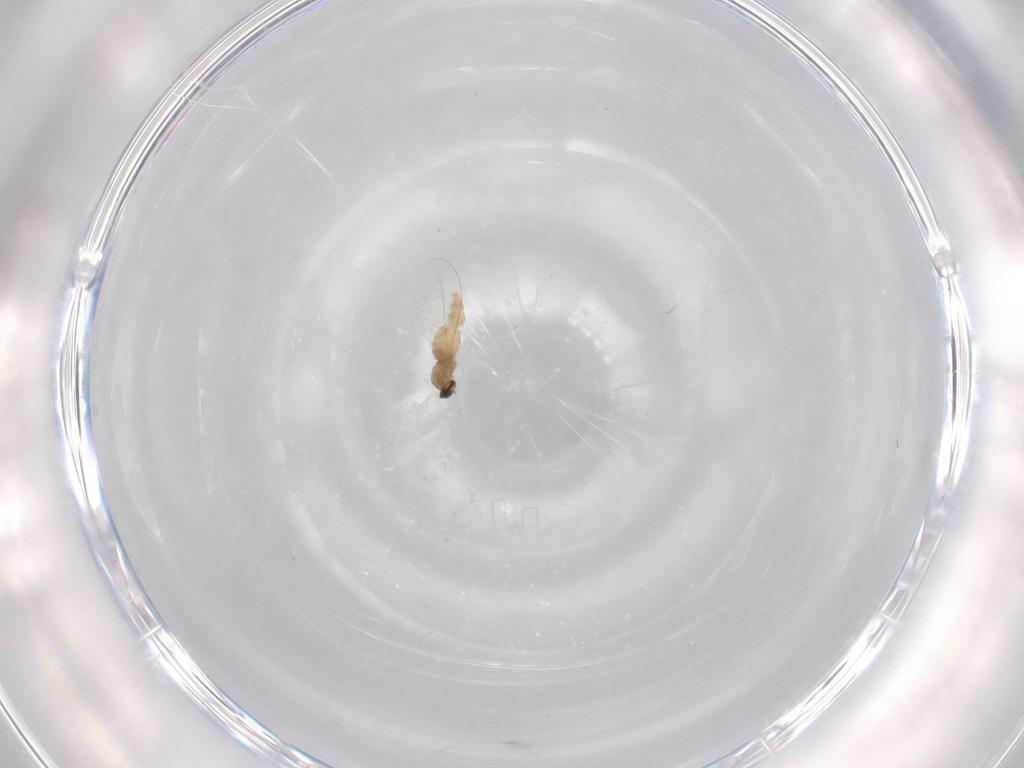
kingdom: Animalia
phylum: Arthropoda
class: Insecta
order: Diptera
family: Cecidomyiidae
